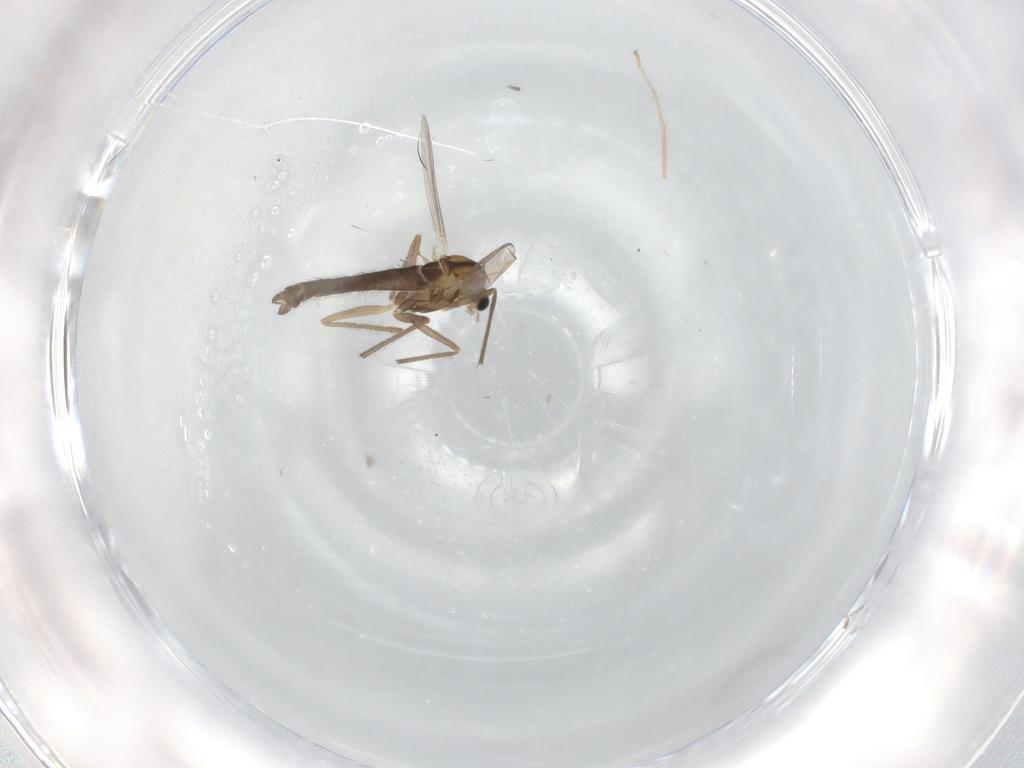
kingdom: Animalia
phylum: Arthropoda
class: Insecta
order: Diptera
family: Chironomidae
